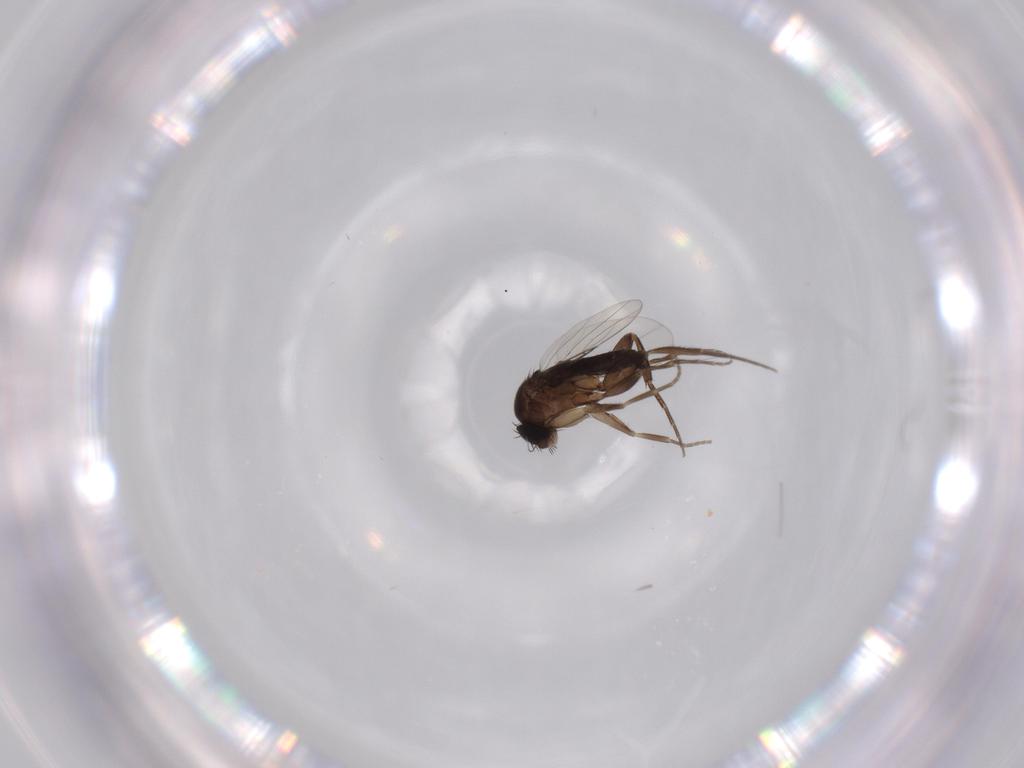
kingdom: Animalia
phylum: Arthropoda
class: Insecta
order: Diptera
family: Phoridae
